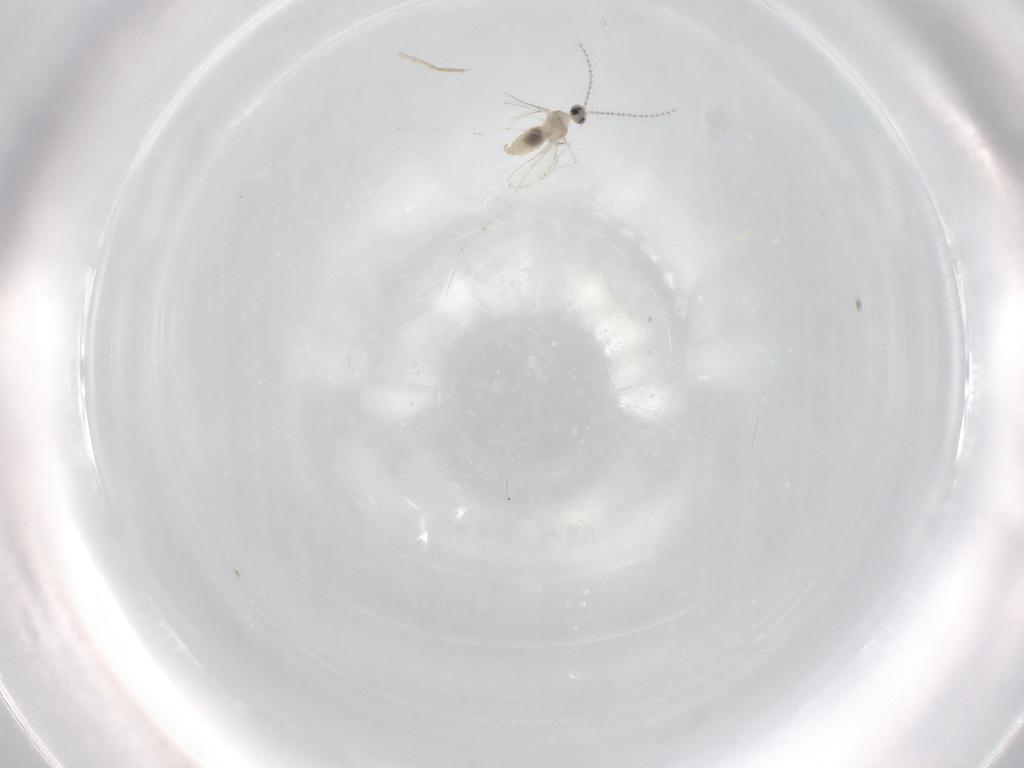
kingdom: Animalia
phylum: Arthropoda
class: Insecta
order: Diptera
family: Cecidomyiidae
